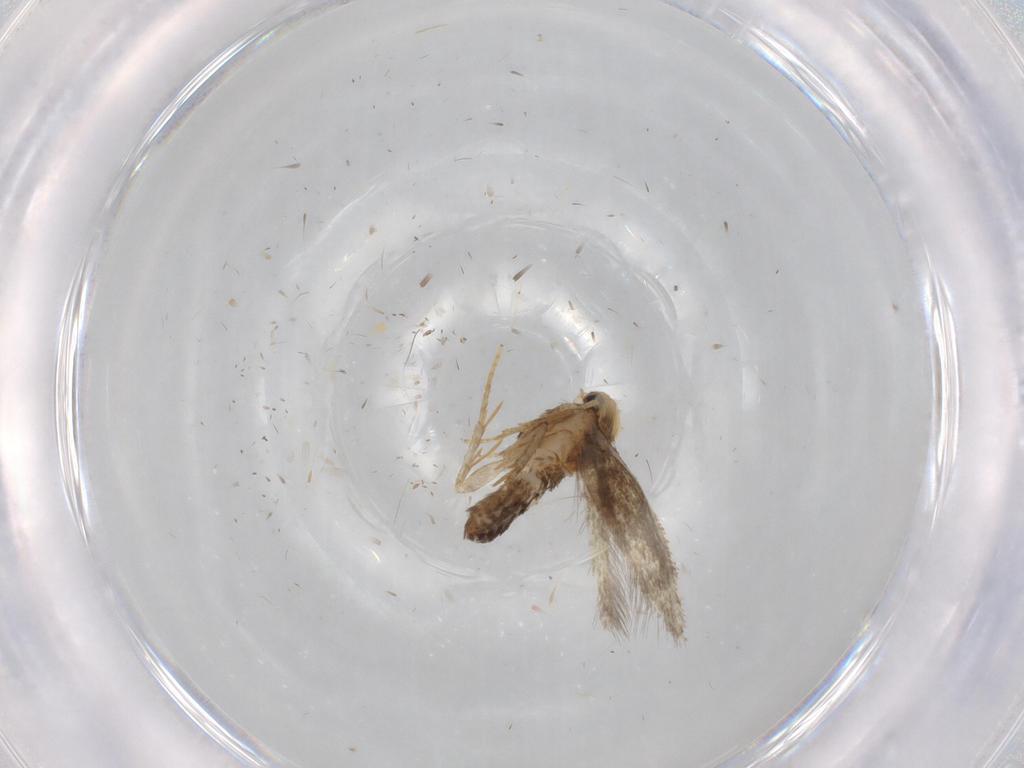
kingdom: Animalia
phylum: Arthropoda
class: Insecta
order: Lepidoptera
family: Nepticulidae
